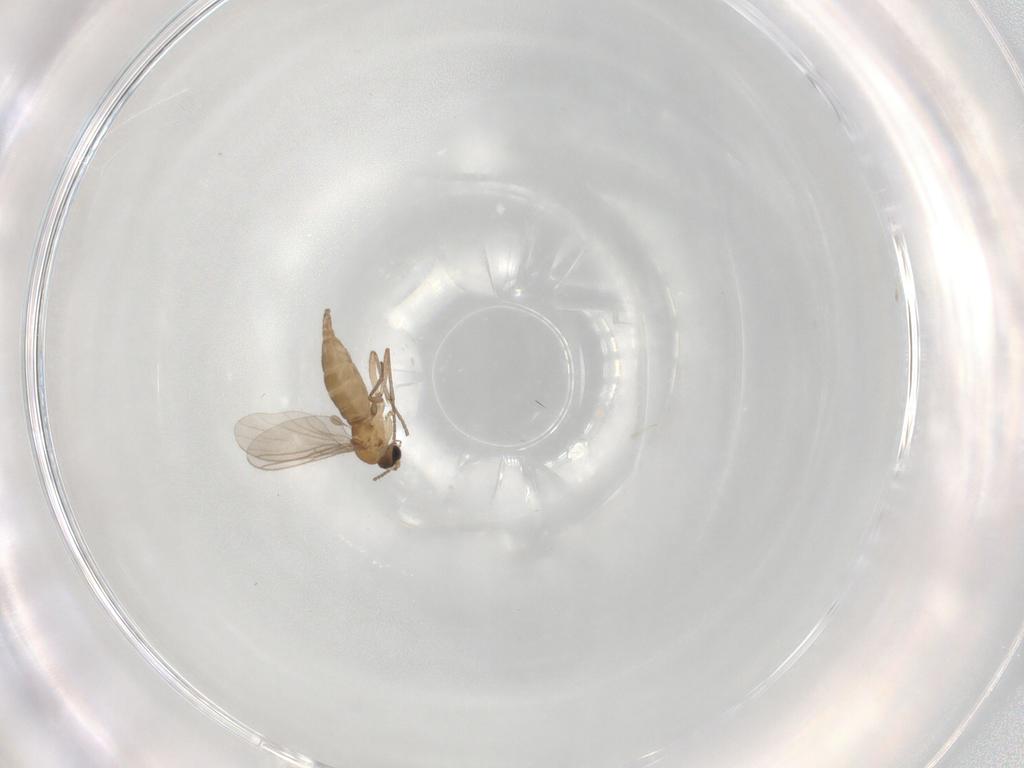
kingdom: Animalia
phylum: Arthropoda
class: Insecta
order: Diptera
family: Sciaridae
